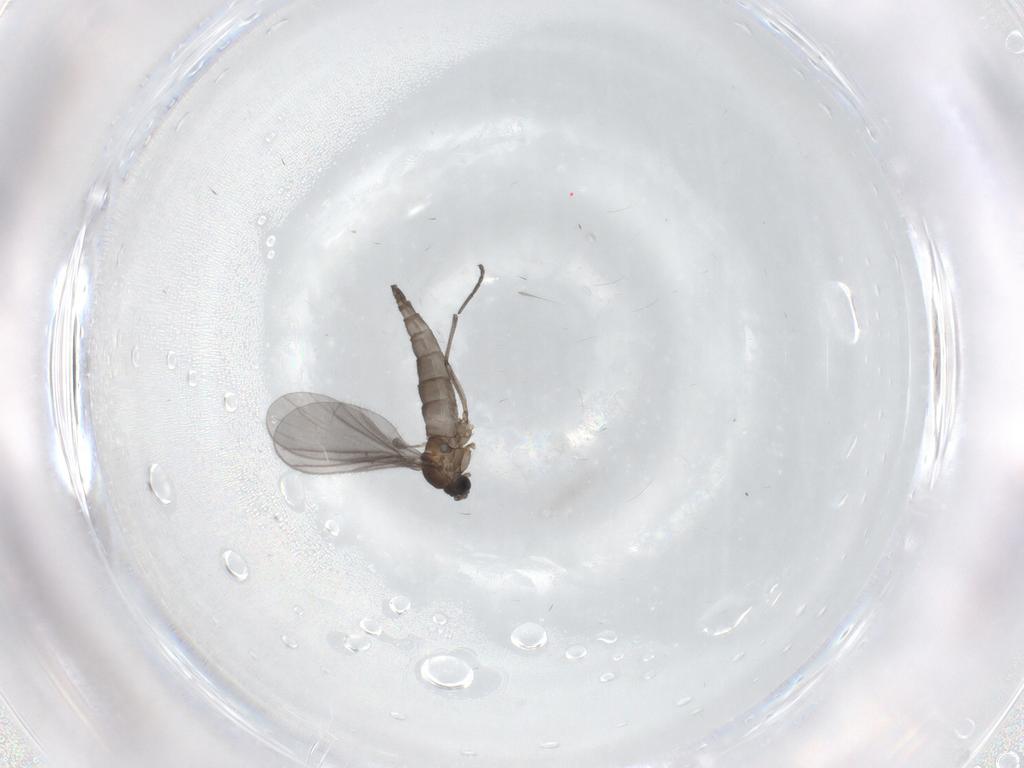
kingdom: Animalia
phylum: Arthropoda
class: Insecta
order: Diptera
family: Sciaridae
